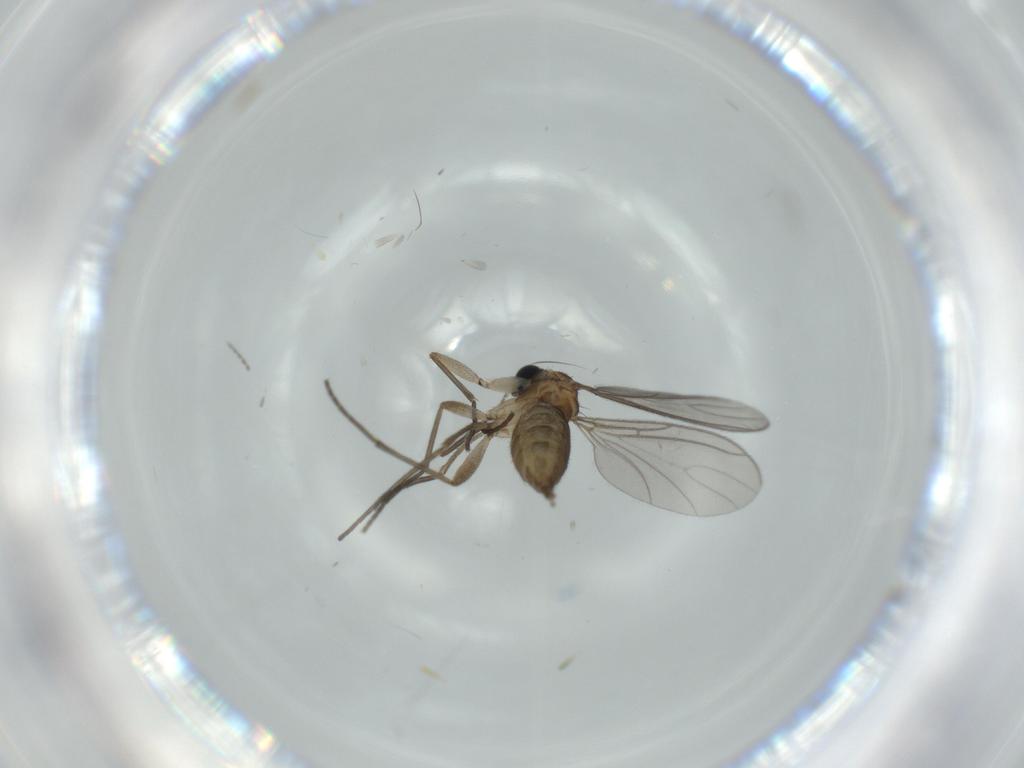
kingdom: Animalia
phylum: Arthropoda
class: Insecta
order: Diptera
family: Sciaridae
